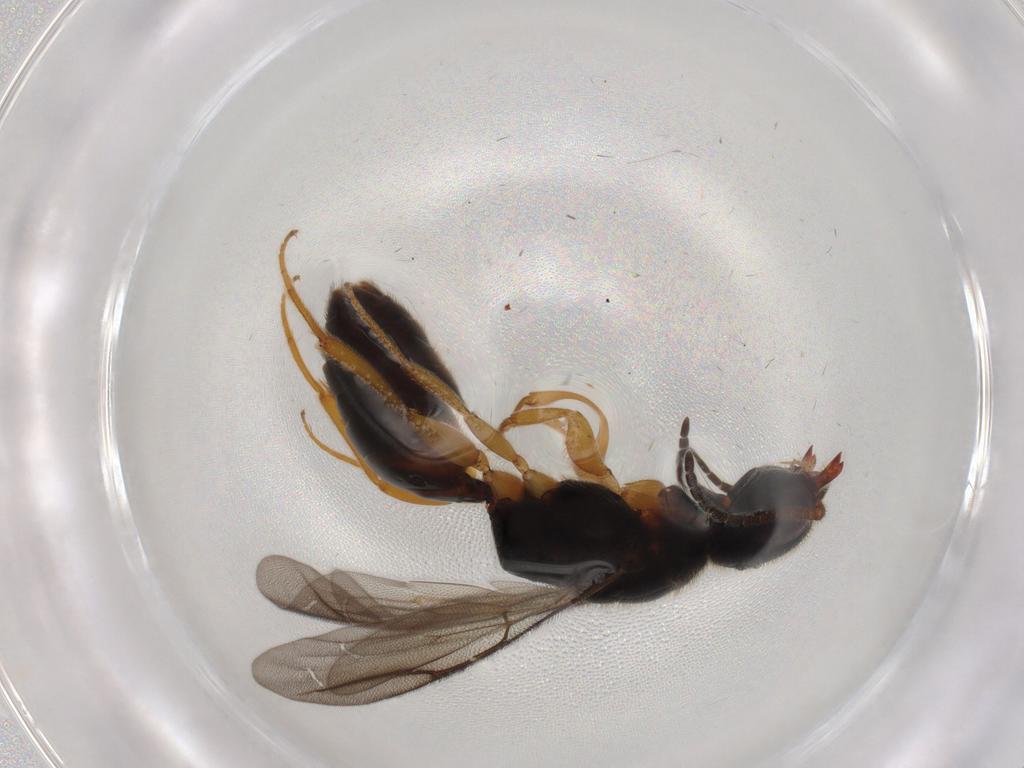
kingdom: Animalia
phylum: Arthropoda
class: Insecta
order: Hymenoptera
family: Bethylidae
